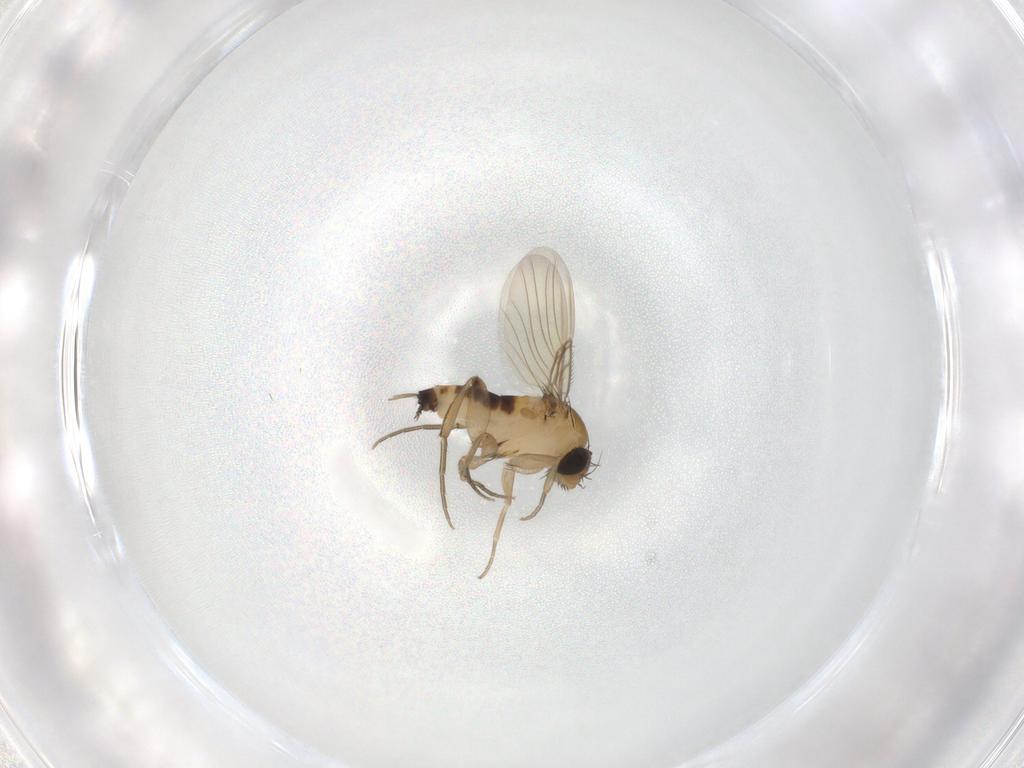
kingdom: Animalia
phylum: Arthropoda
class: Insecta
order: Diptera
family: Phoridae
